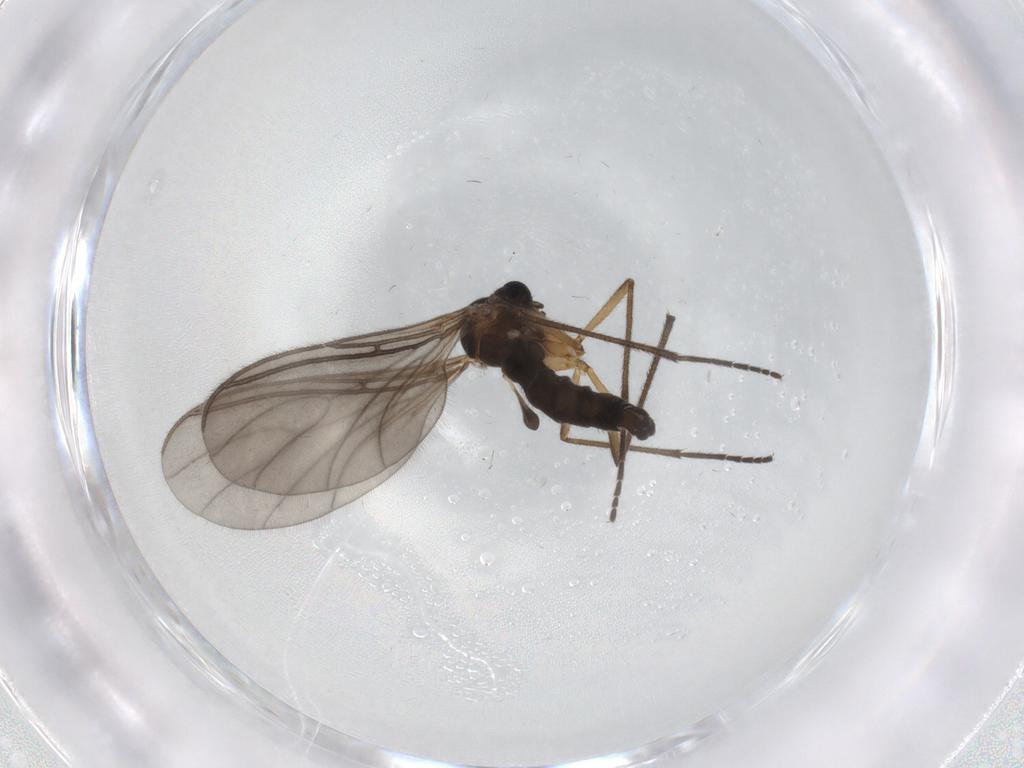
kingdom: Animalia
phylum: Arthropoda
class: Insecta
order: Diptera
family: Sciaridae
